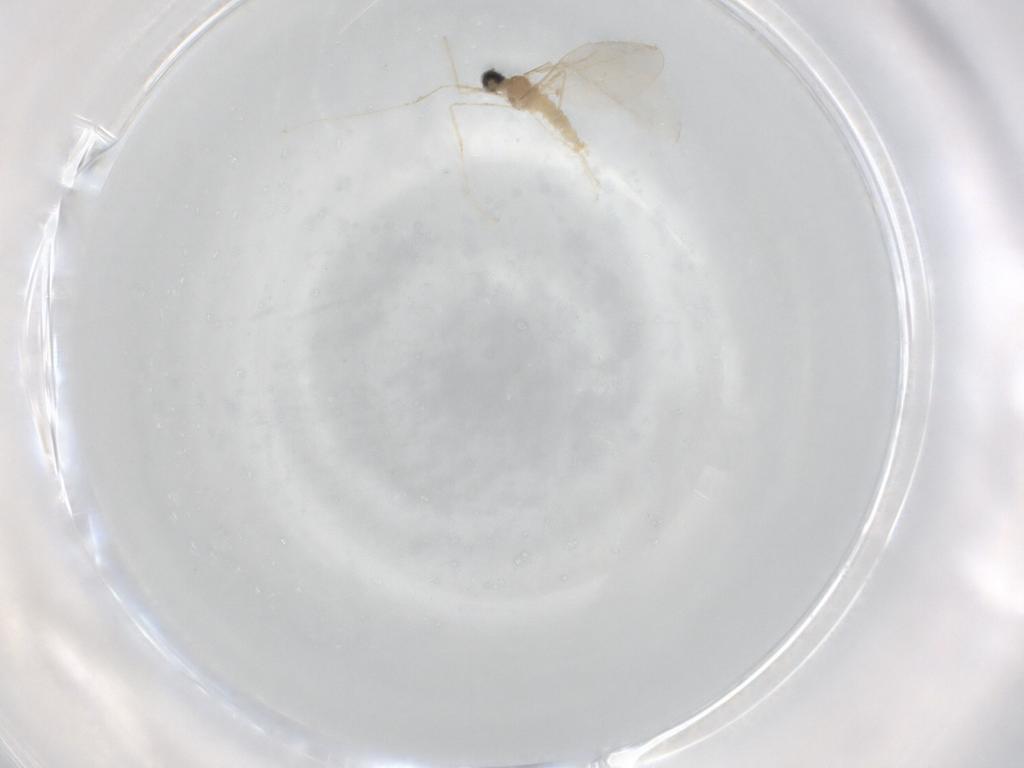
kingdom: Animalia
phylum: Arthropoda
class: Insecta
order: Diptera
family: Cecidomyiidae
